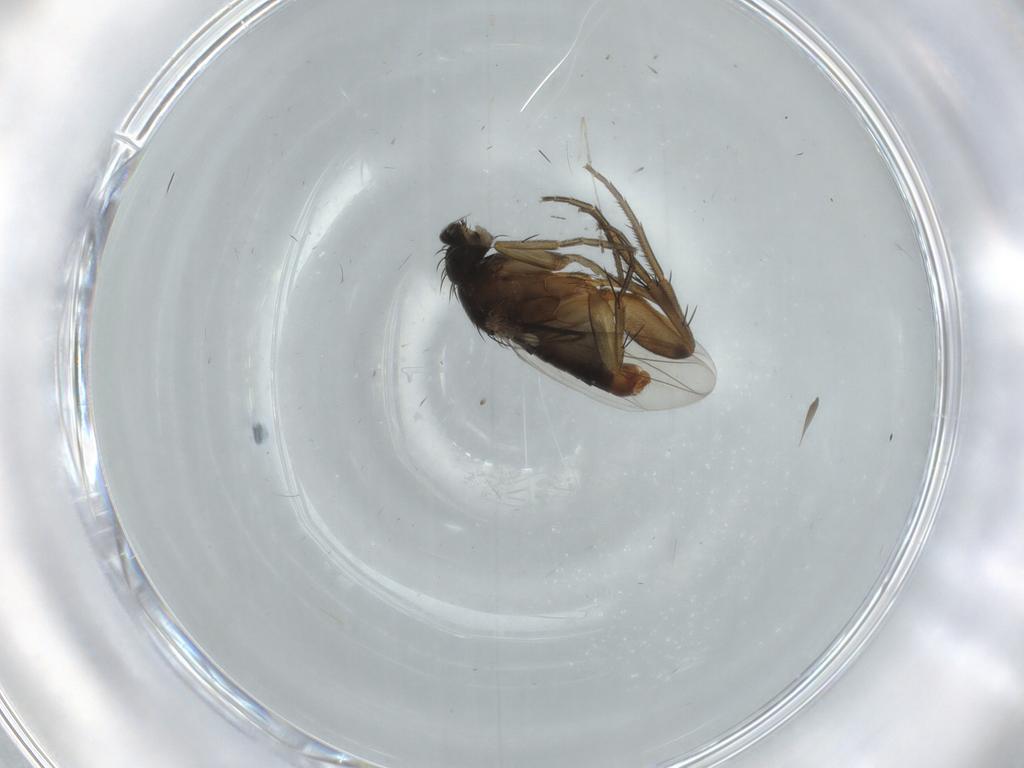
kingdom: Animalia
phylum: Arthropoda
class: Insecta
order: Diptera
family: Phoridae
